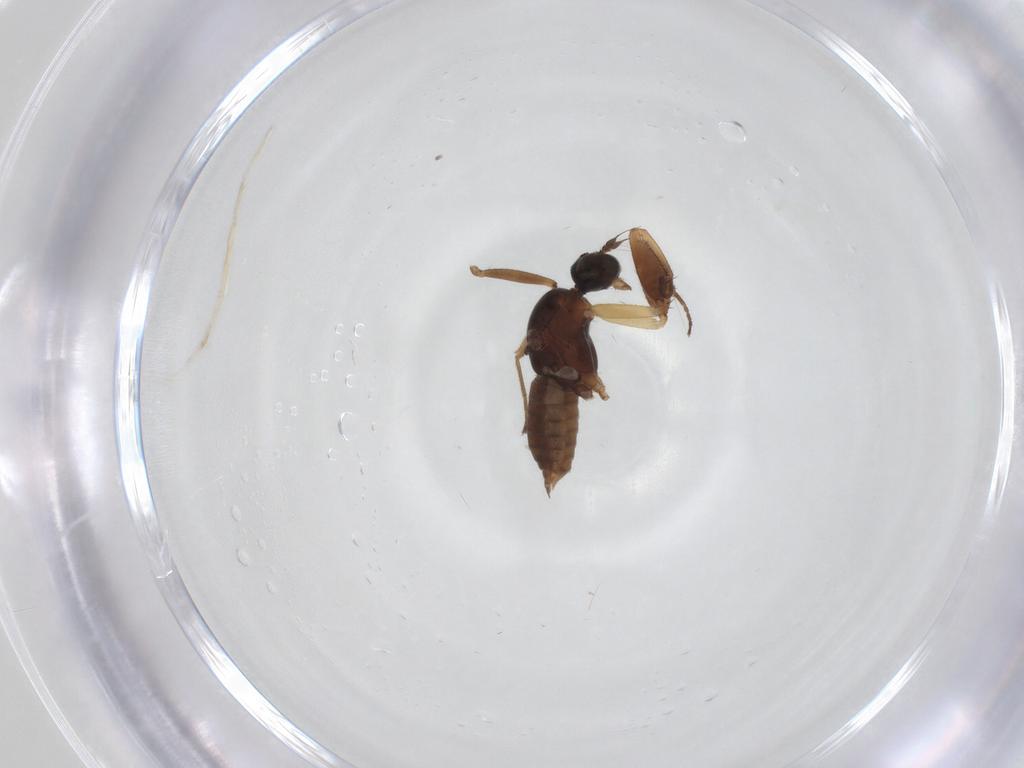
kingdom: Animalia
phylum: Arthropoda
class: Insecta
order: Diptera
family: Empididae
